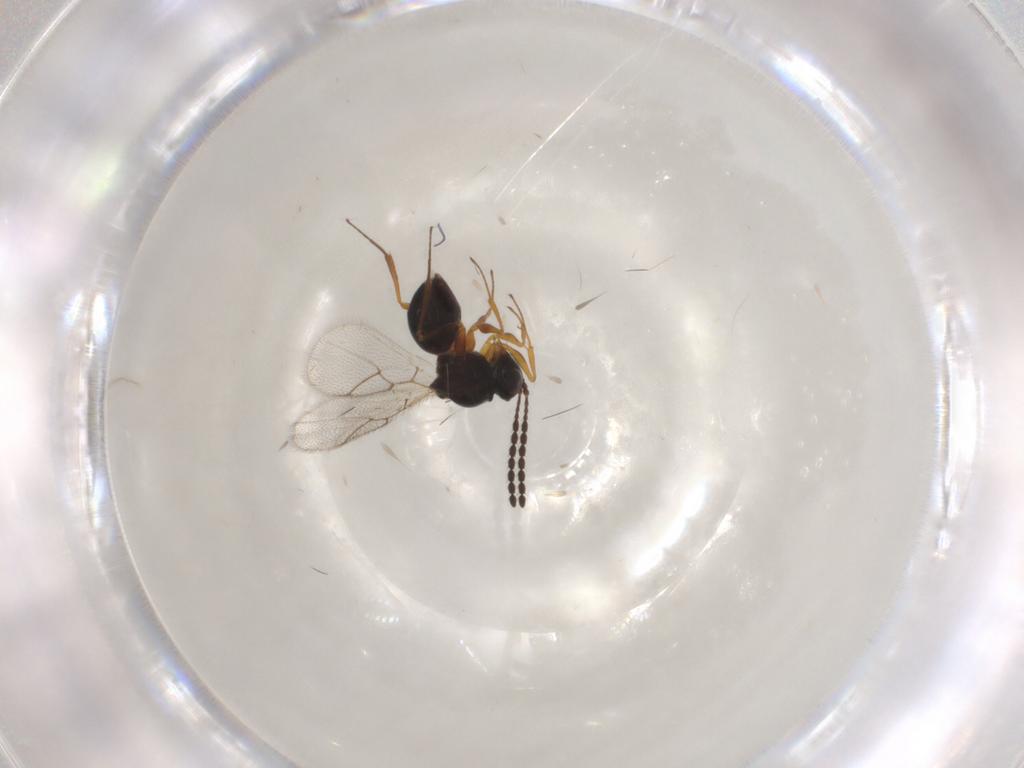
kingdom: Animalia
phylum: Arthropoda
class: Insecta
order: Hymenoptera
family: Figitidae
